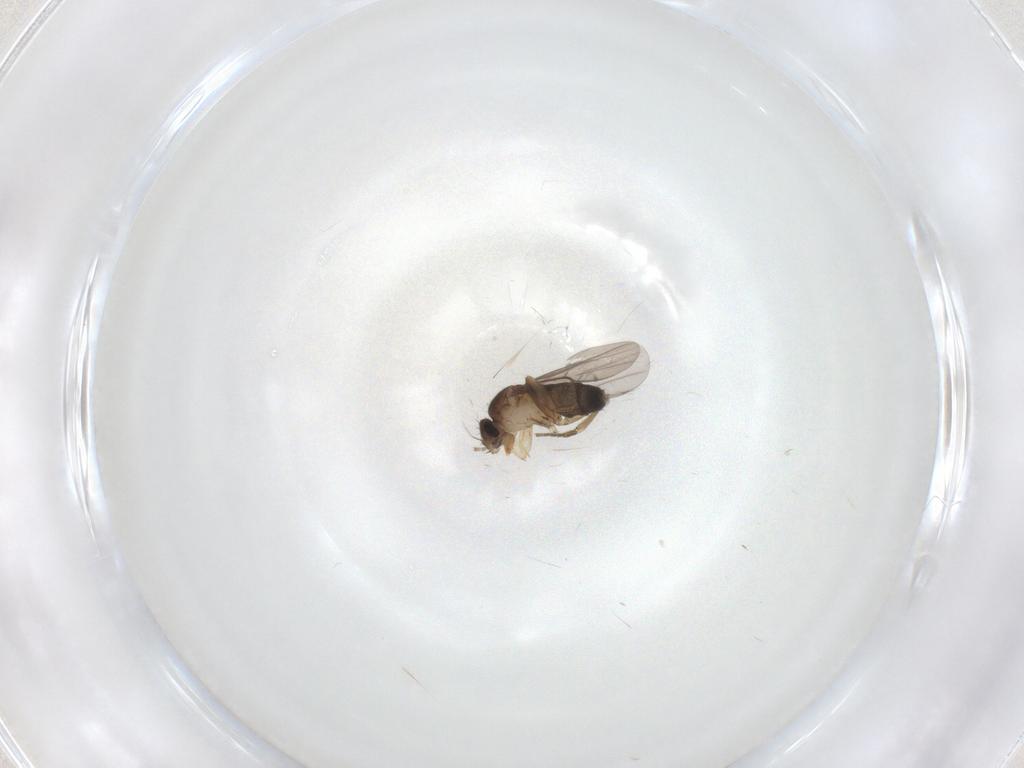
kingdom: Animalia
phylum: Arthropoda
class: Insecta
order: Diptera
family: Phoridae
